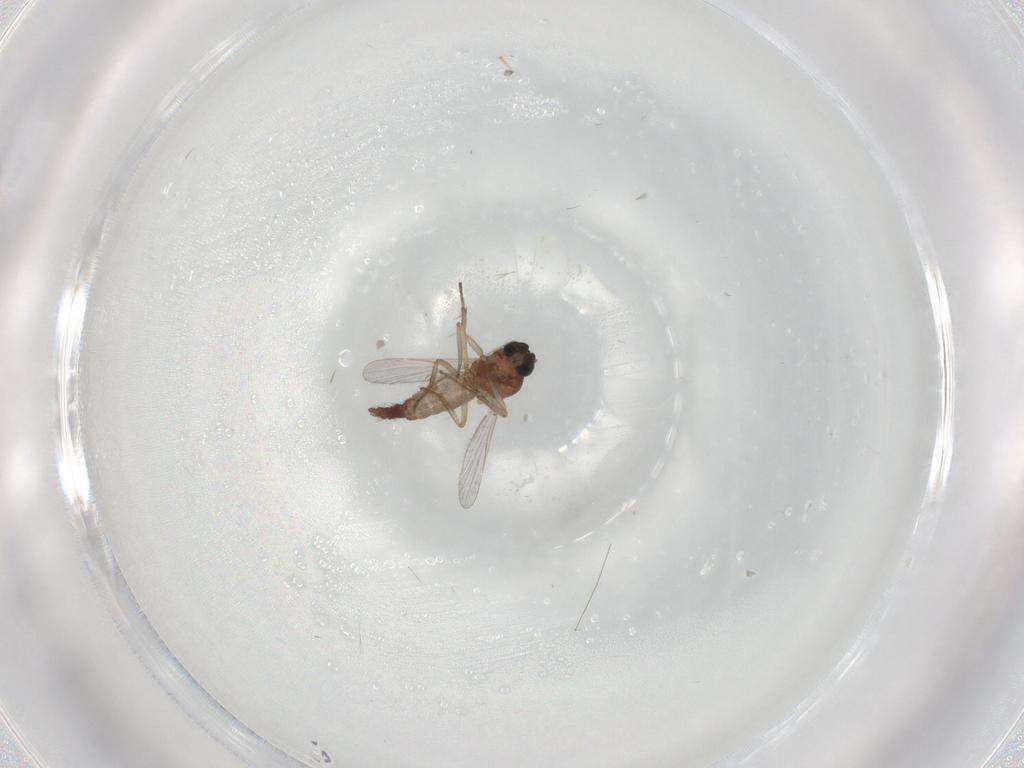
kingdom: Animalia
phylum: Arthropoda
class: Insecta
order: Diptera
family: Ceratopogonidae
